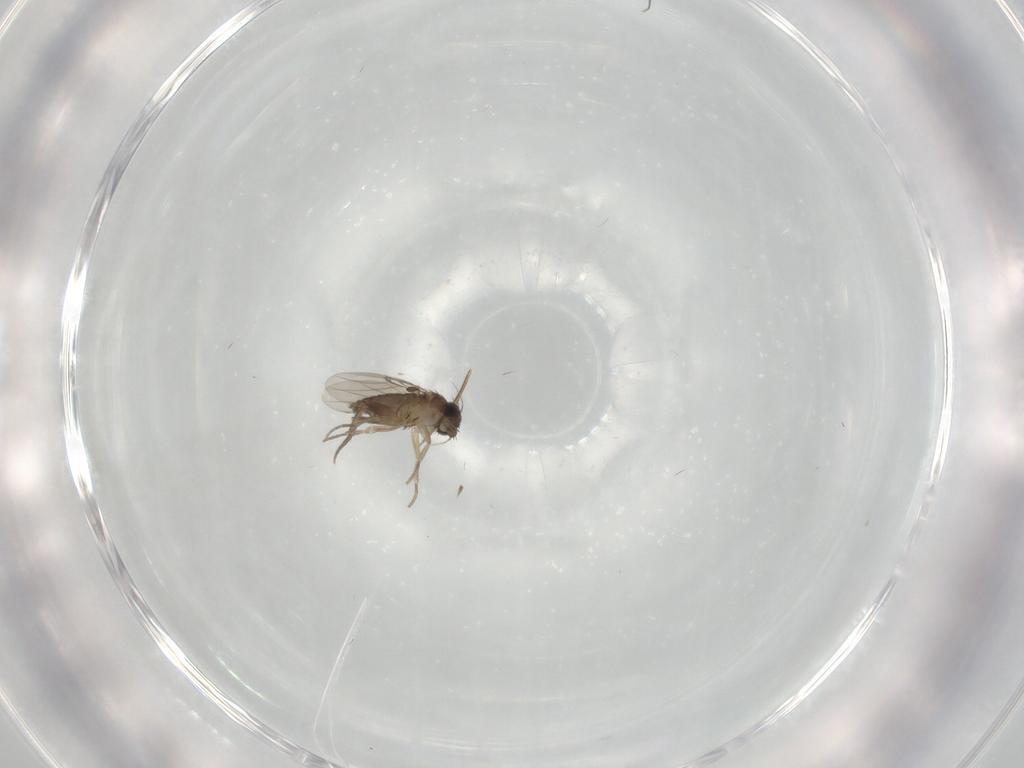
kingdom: Animalia
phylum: Arthropoda
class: Insecta
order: Diptera
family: Phoridae
